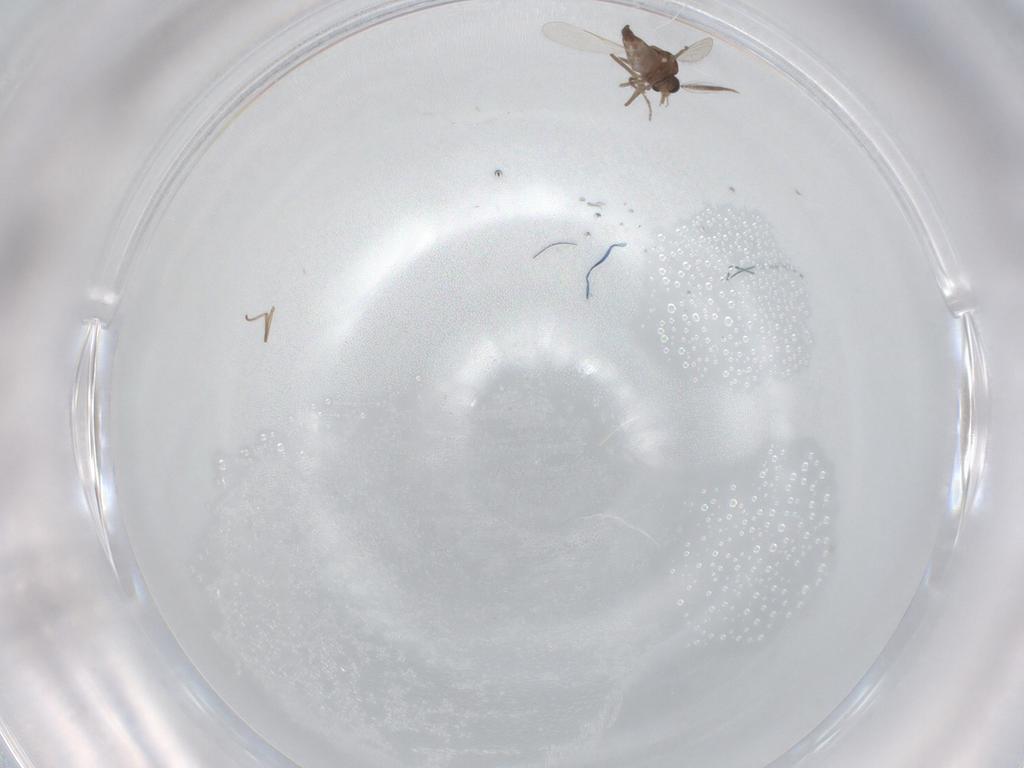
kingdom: Animalia
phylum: Arthropoda
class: Insecta
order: Diptera
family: Ceratopogonidae
